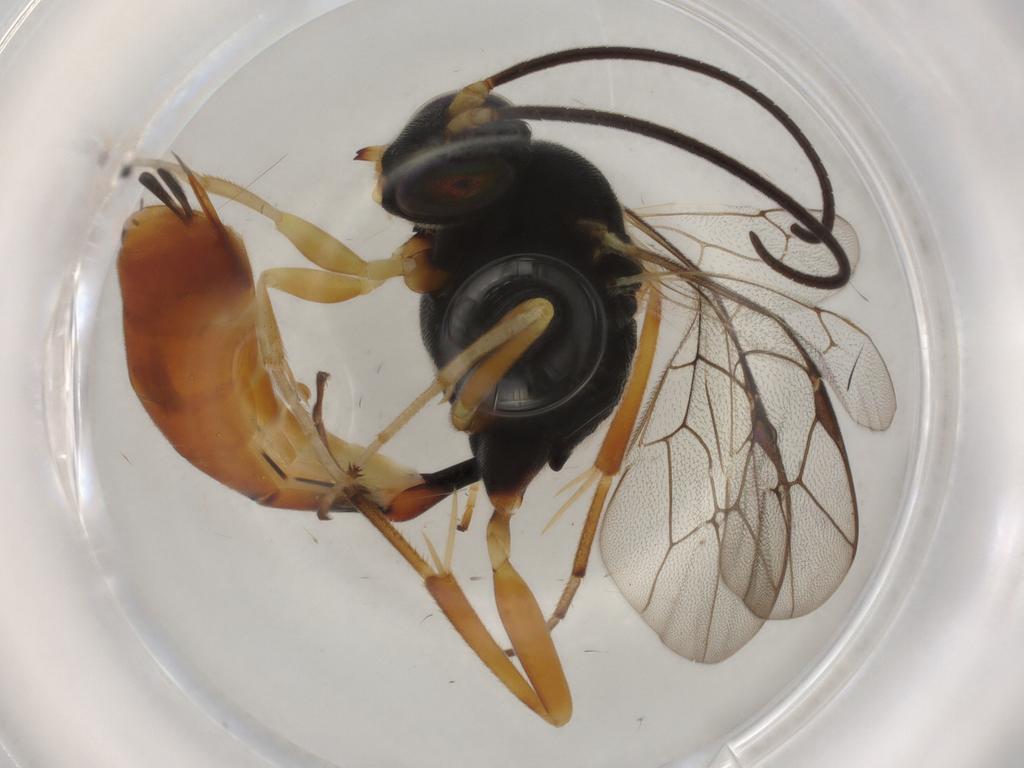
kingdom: Animalia
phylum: Arthropoda
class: Insecta
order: Hymenoptera
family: Ichneumonidae
